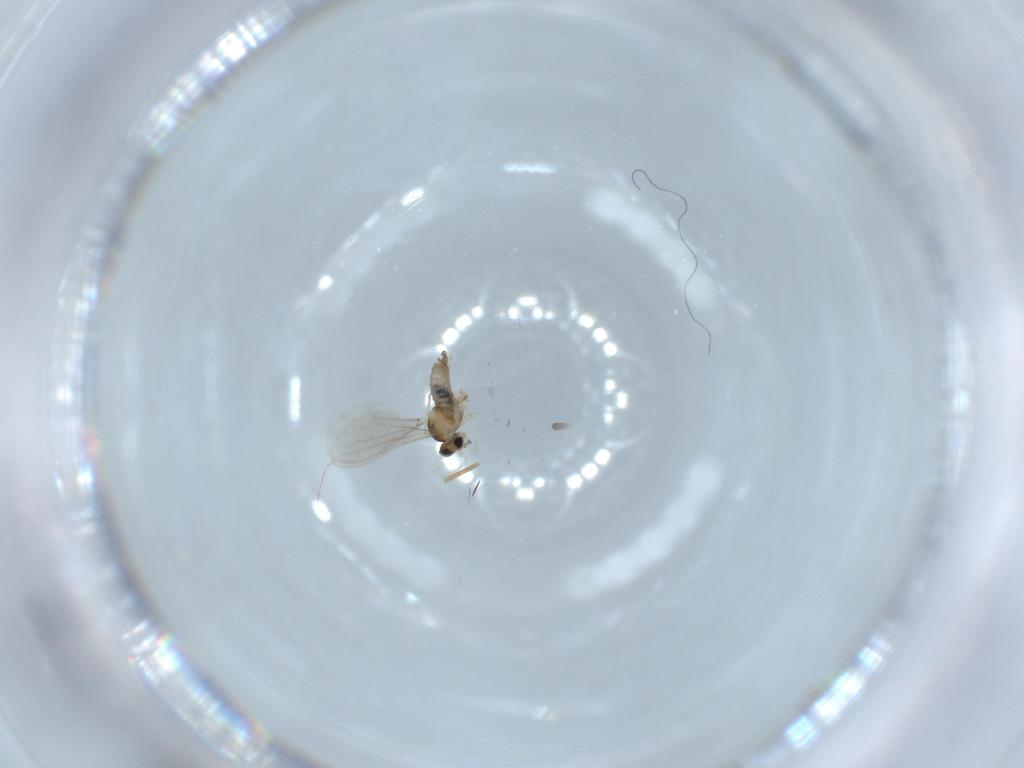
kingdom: Animalia
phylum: Arthropoda
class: Insecta
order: Diptera
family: Cecidomyiidae
